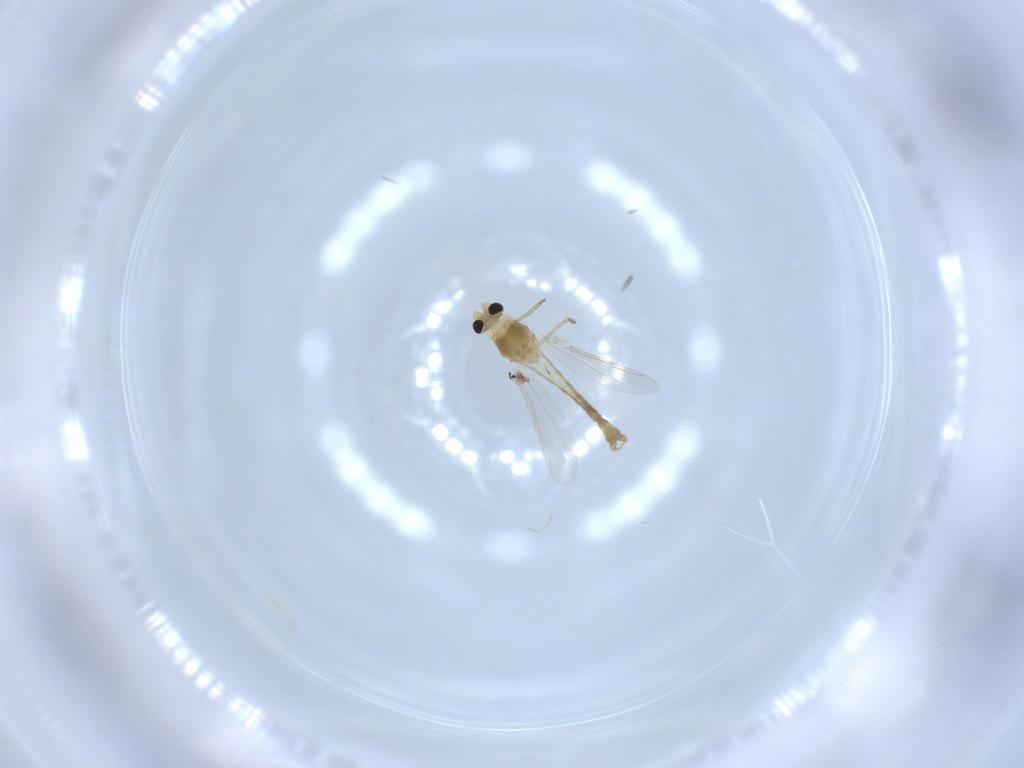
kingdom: Animalia
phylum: Arthropoda
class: Insecta
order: Diptera
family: Chironomidae
